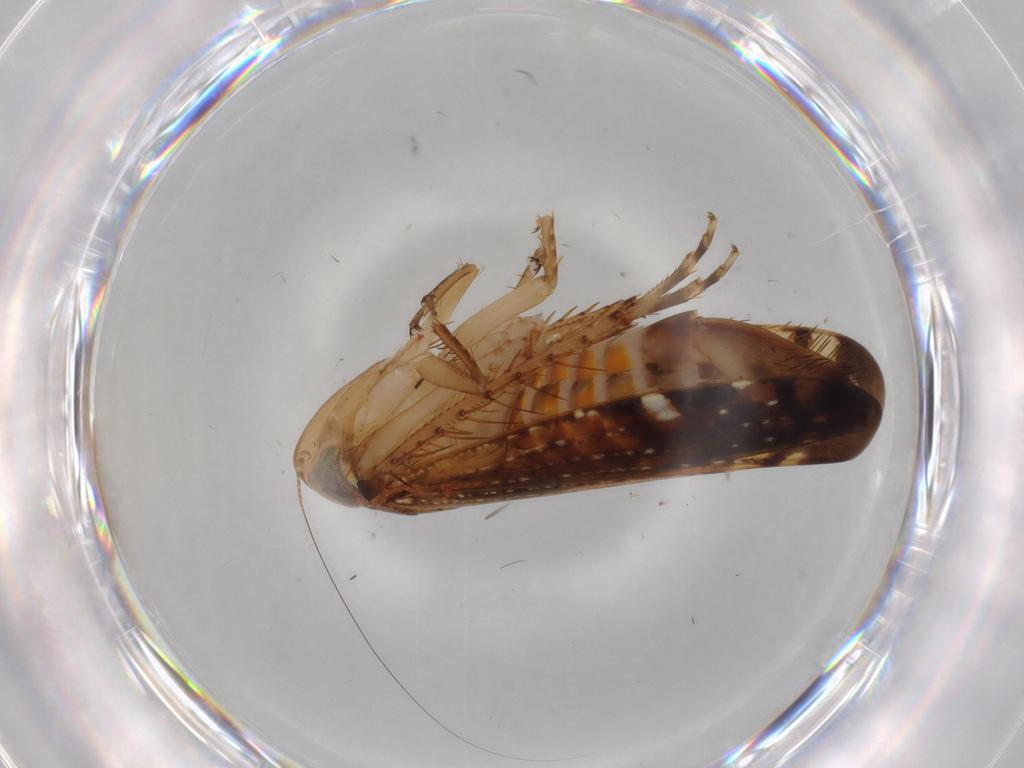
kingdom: Animalia
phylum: Arthropoda
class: Insecta
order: Hemiptera
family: Cicadellidae
